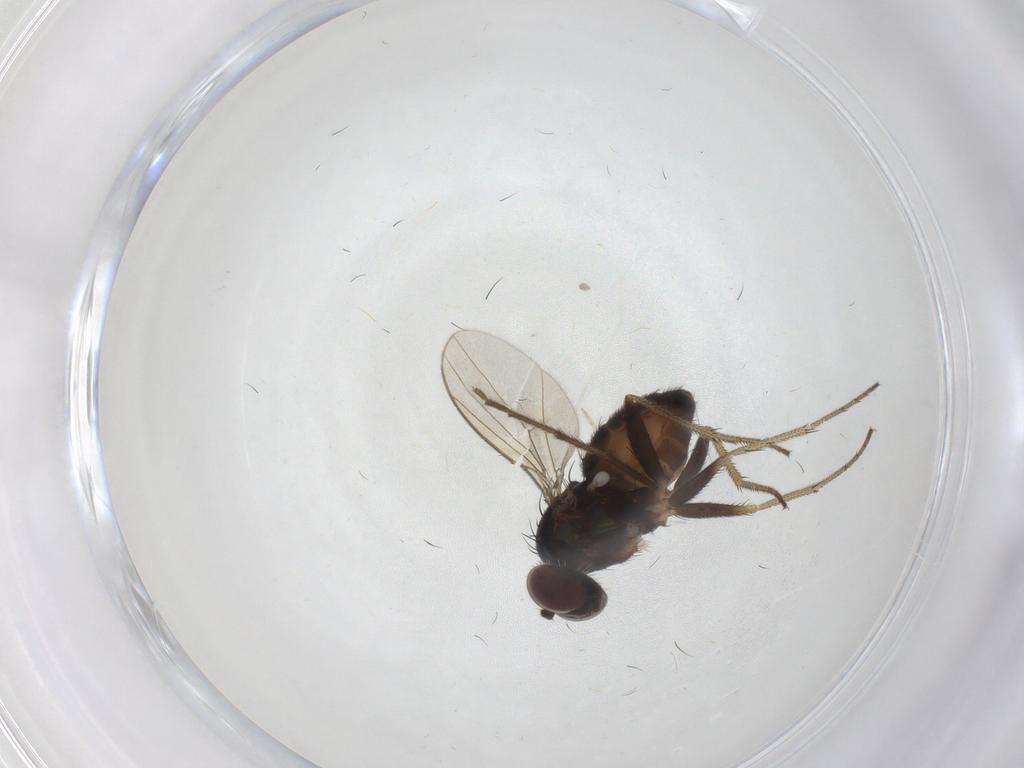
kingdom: Animalia
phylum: Arthropoda
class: Insecta
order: Diptera
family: Dolichopodidae
